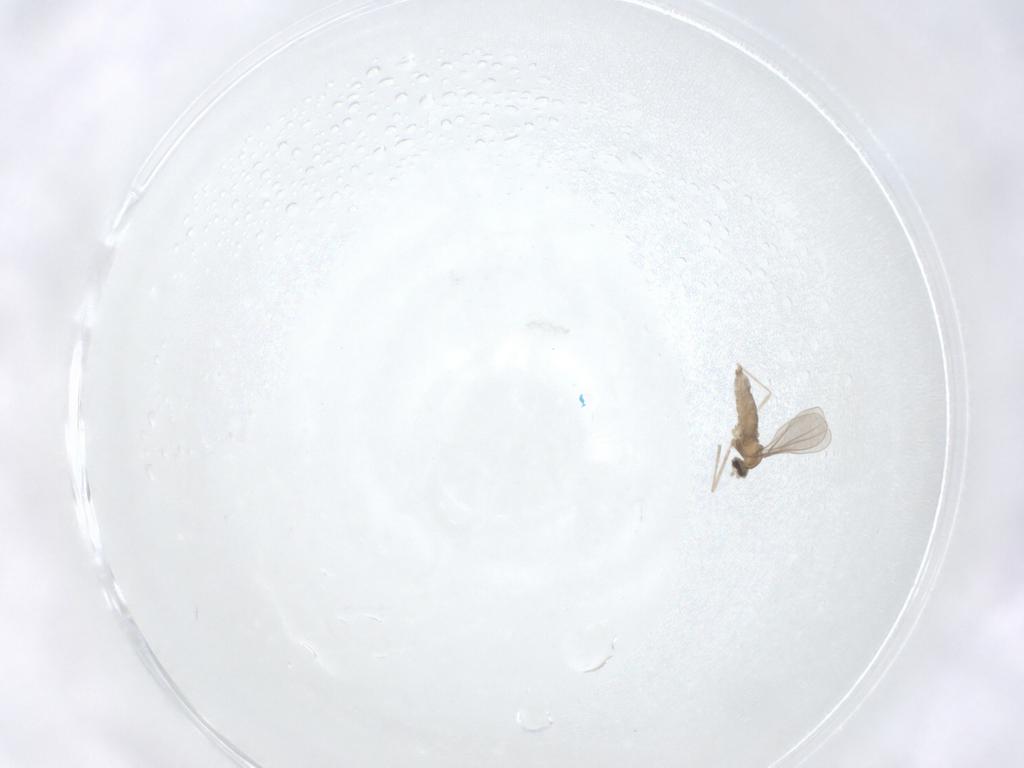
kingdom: Animalia
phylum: Arthropoda
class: Insecta
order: Diptera
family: Cecidomyiidae
